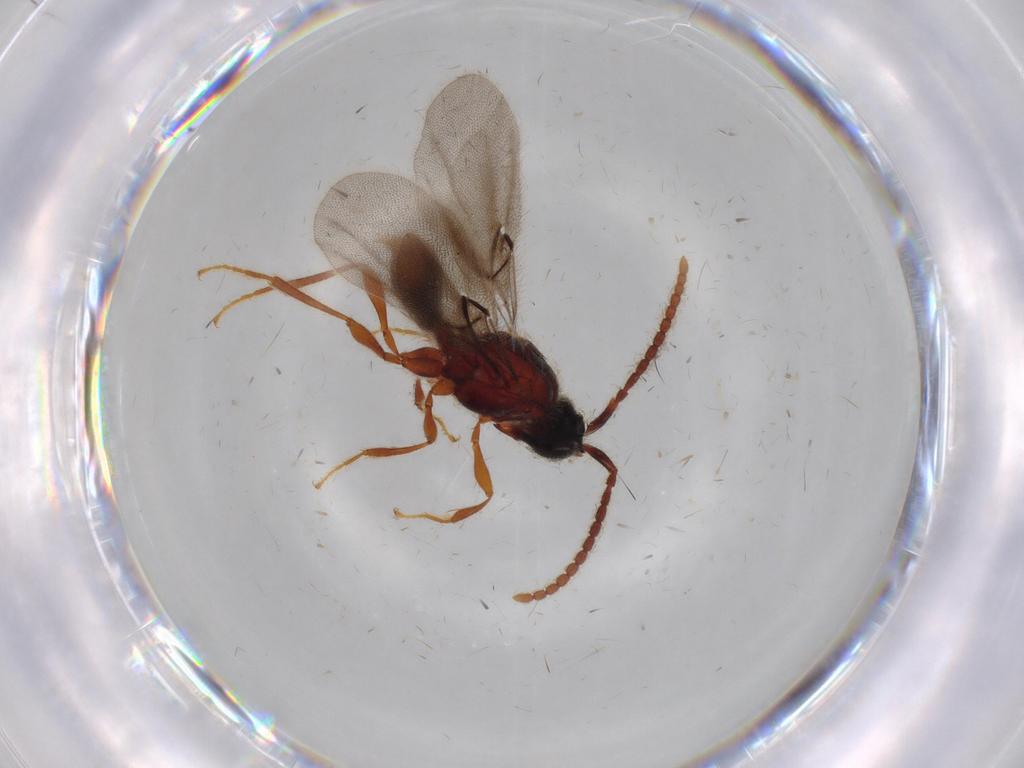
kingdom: Animalia
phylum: Arthropoda
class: Insecta
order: Hymenoptera
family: Diapriidae
